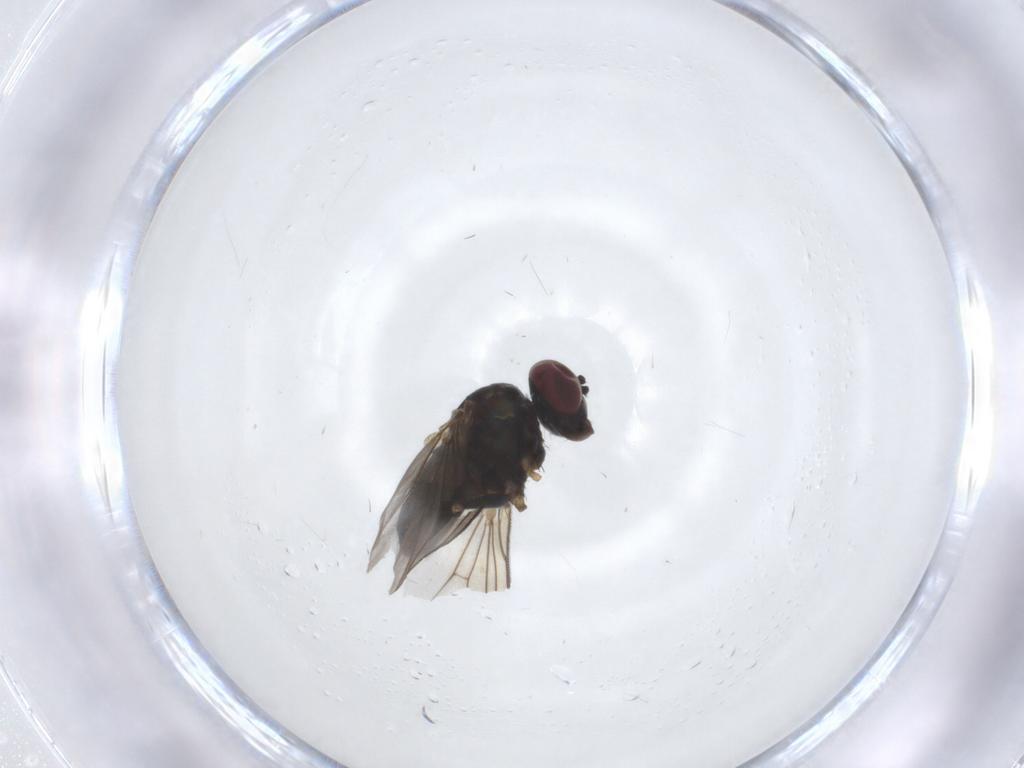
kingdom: Animalia
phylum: Arthropoda
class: Insecta
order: Diptera
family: Dolichopodidae
